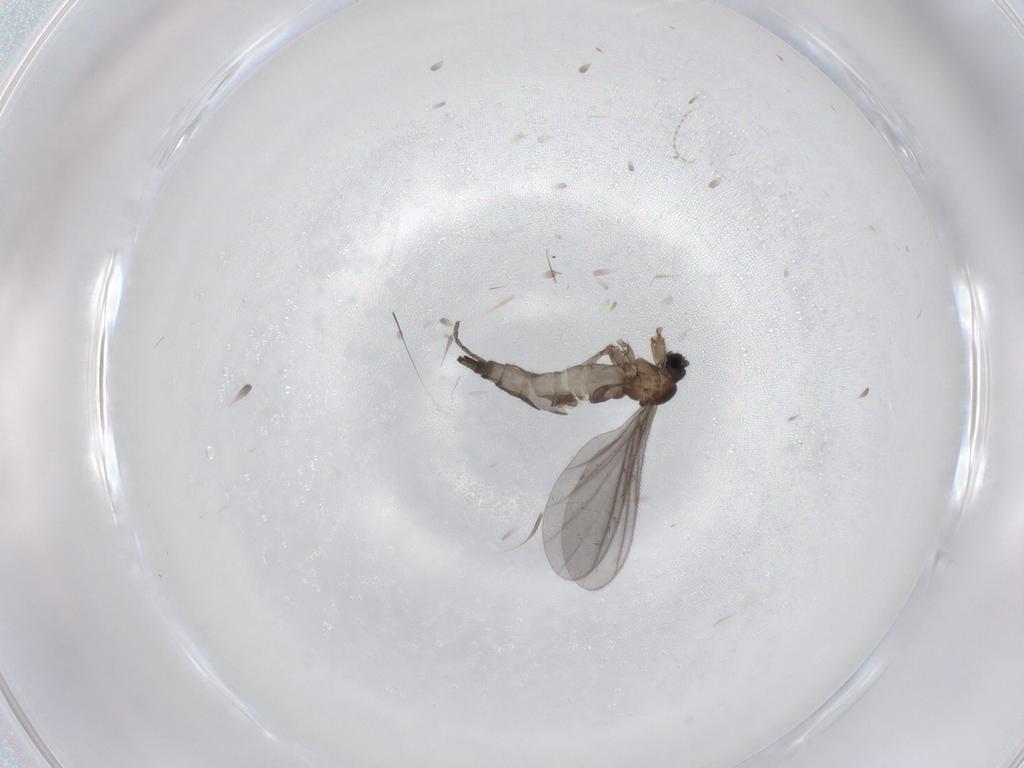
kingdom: Animalia
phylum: Arthropoda
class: Insecta
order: Diptera
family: Sciaridae
